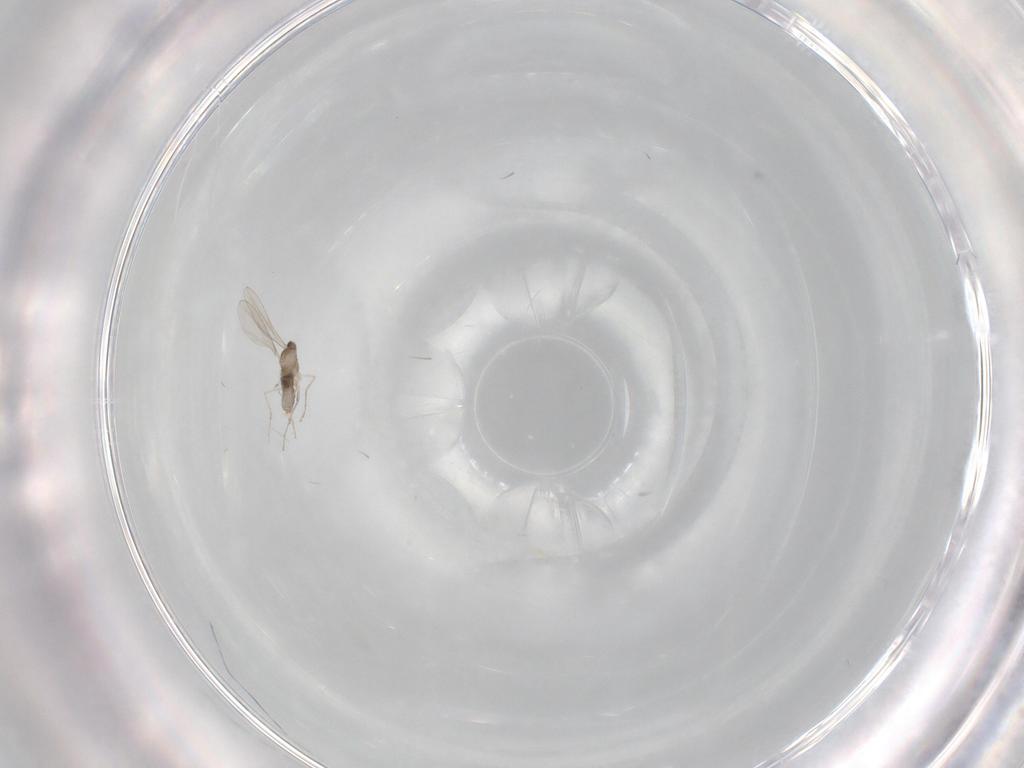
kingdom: Animalia
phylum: Arthropoda
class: Insecta
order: Diptera
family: Cecidomyiidae
